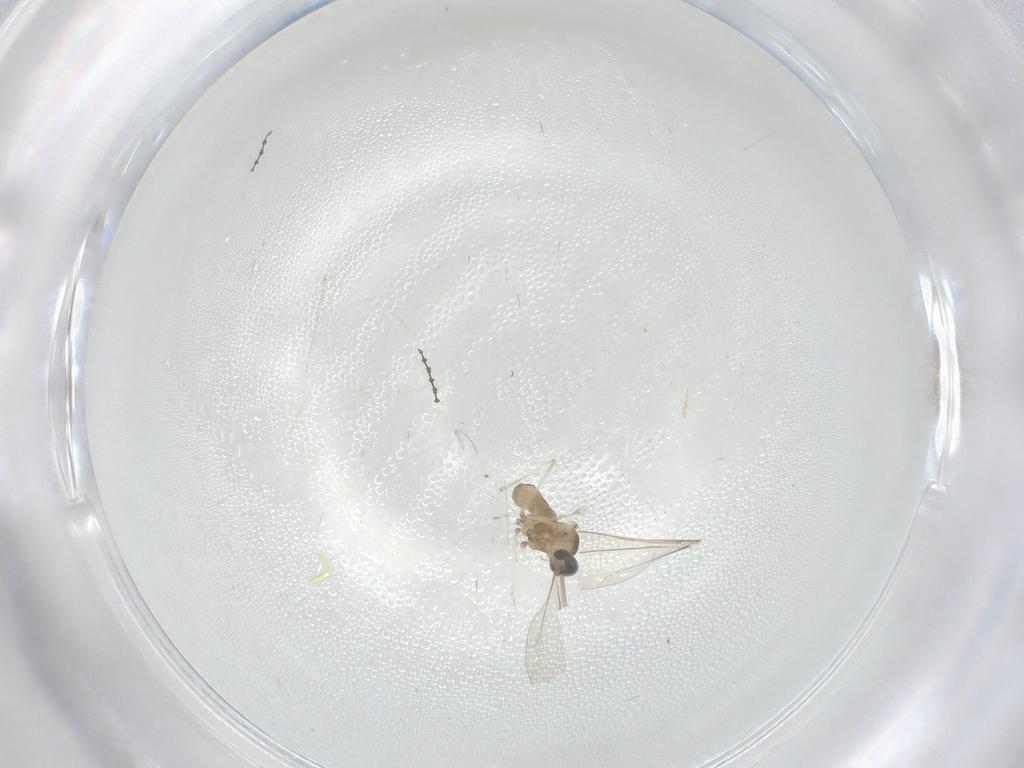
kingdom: Animalia
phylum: Arthropoda
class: Insecta
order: Diptera
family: Cecidomyiidae
